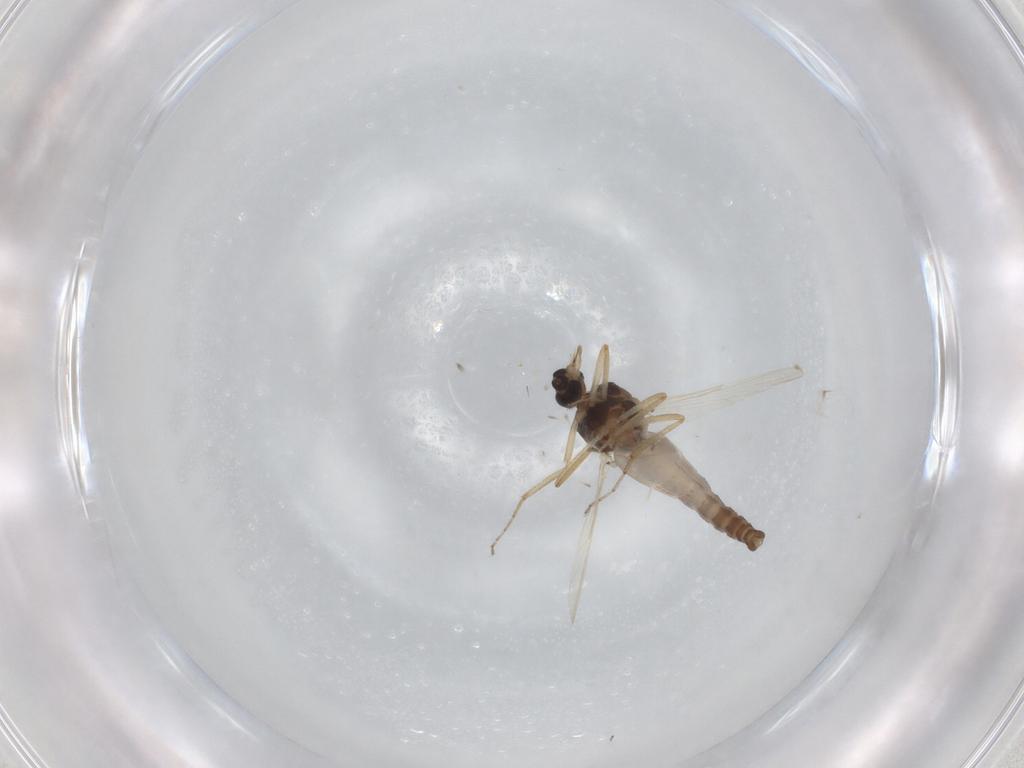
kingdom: Animalia
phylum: Arthropoda
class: Insecta
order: Diptera
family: Ceratopogonidae
